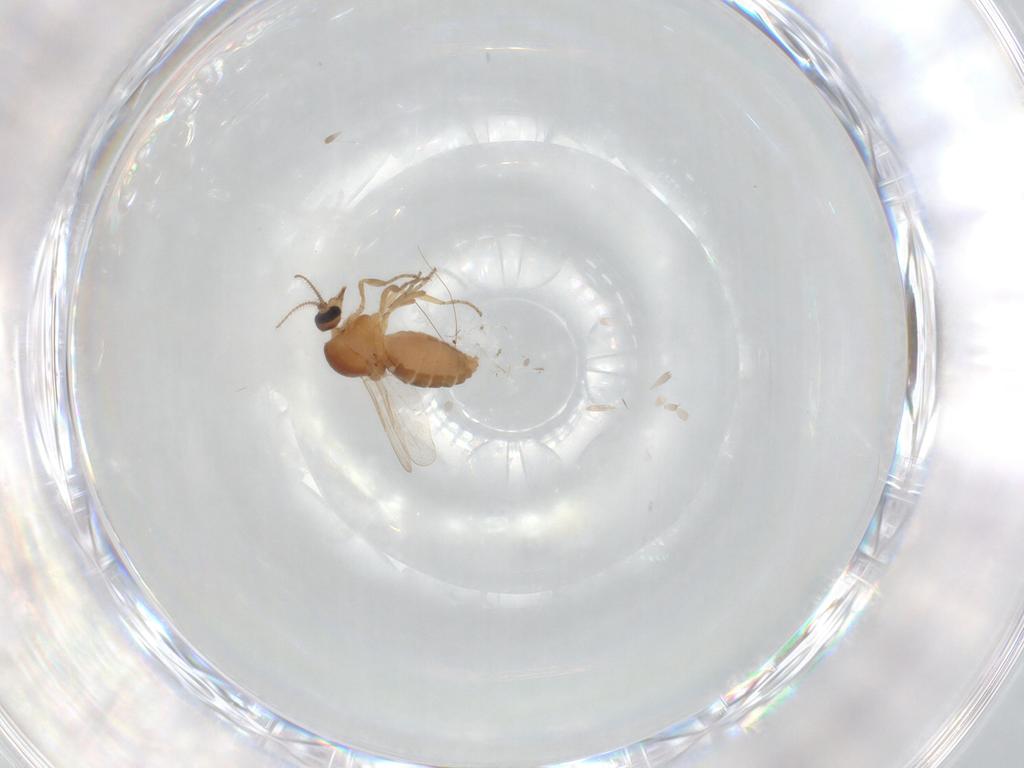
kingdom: Animalia
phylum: Arthropoda
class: Insecta
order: Diptera
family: Ceratopogonidae
